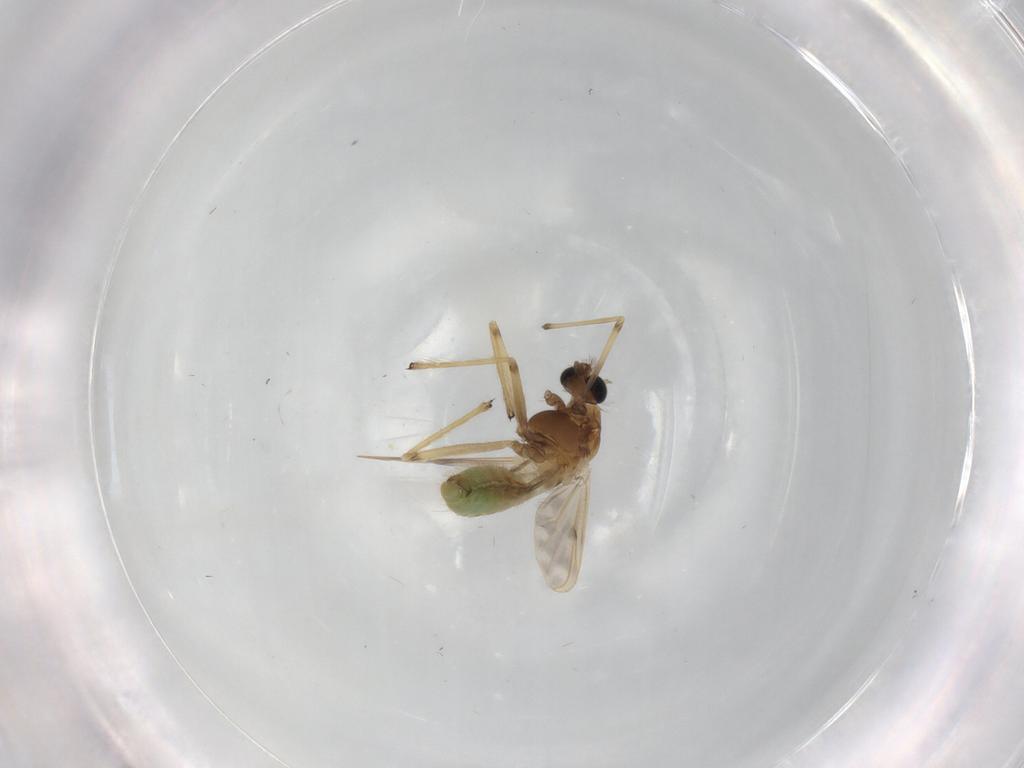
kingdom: Animalia
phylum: Arthropoda
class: Insecta
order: Diptera
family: Chironomidae
